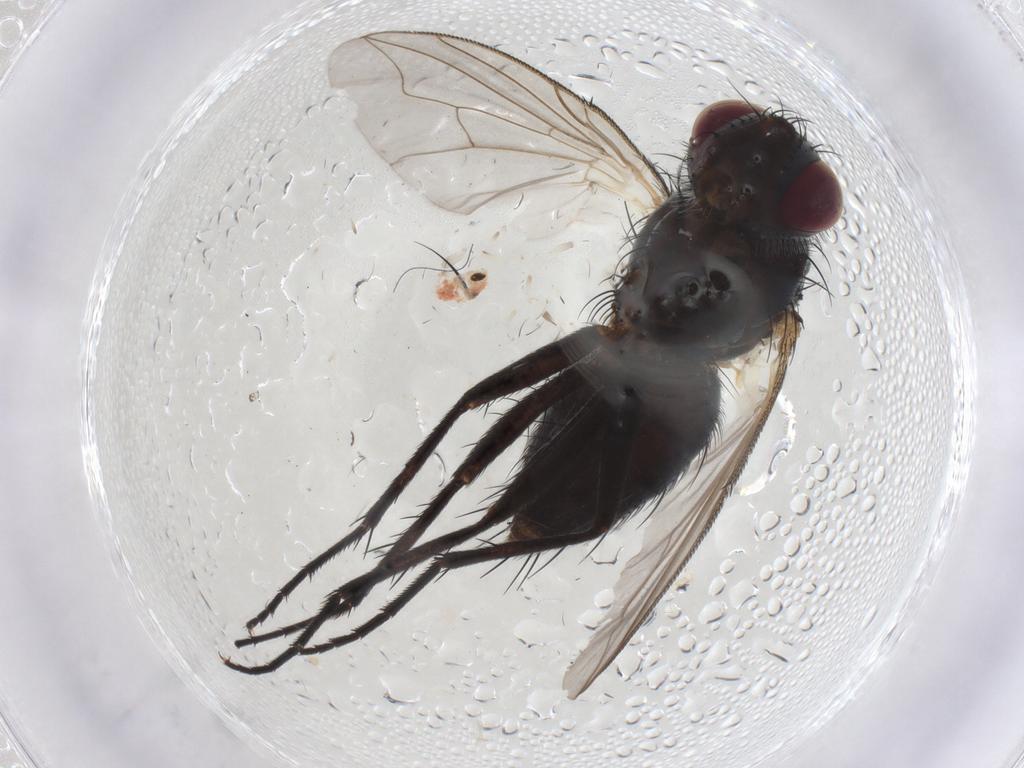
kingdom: Animalia
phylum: Arthropoda
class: Insecta
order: Diptera
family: Tachinidae
